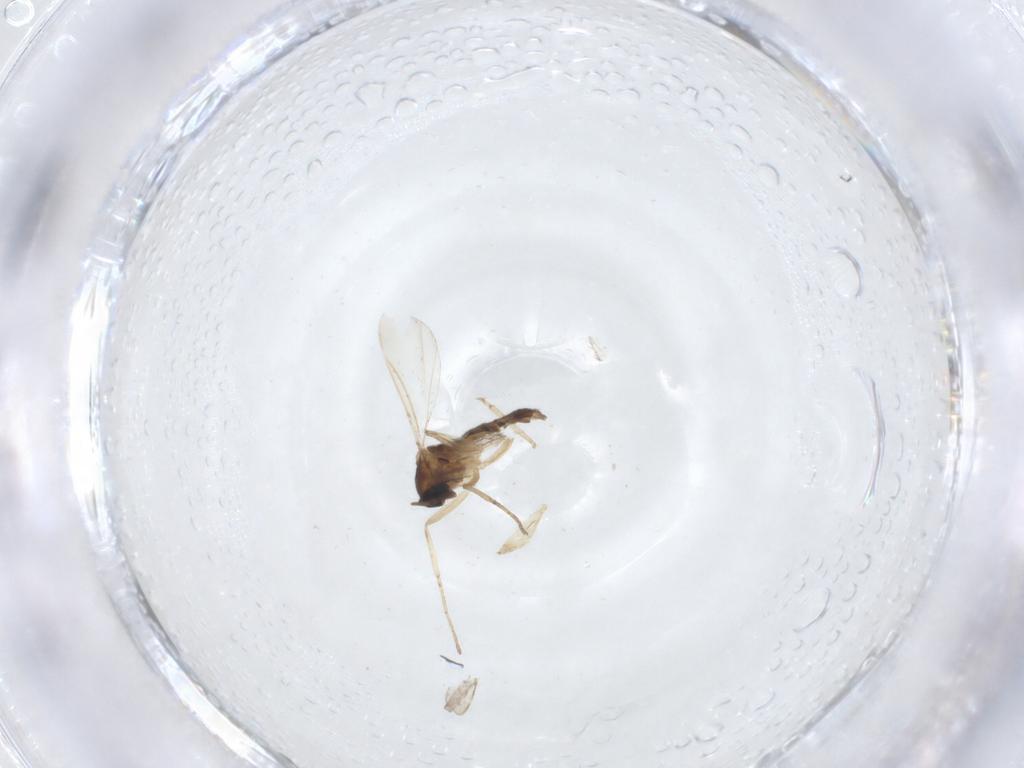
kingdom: Animalia
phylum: Arthropoda
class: Insecta
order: Diptera
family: Cecidomyiidae
